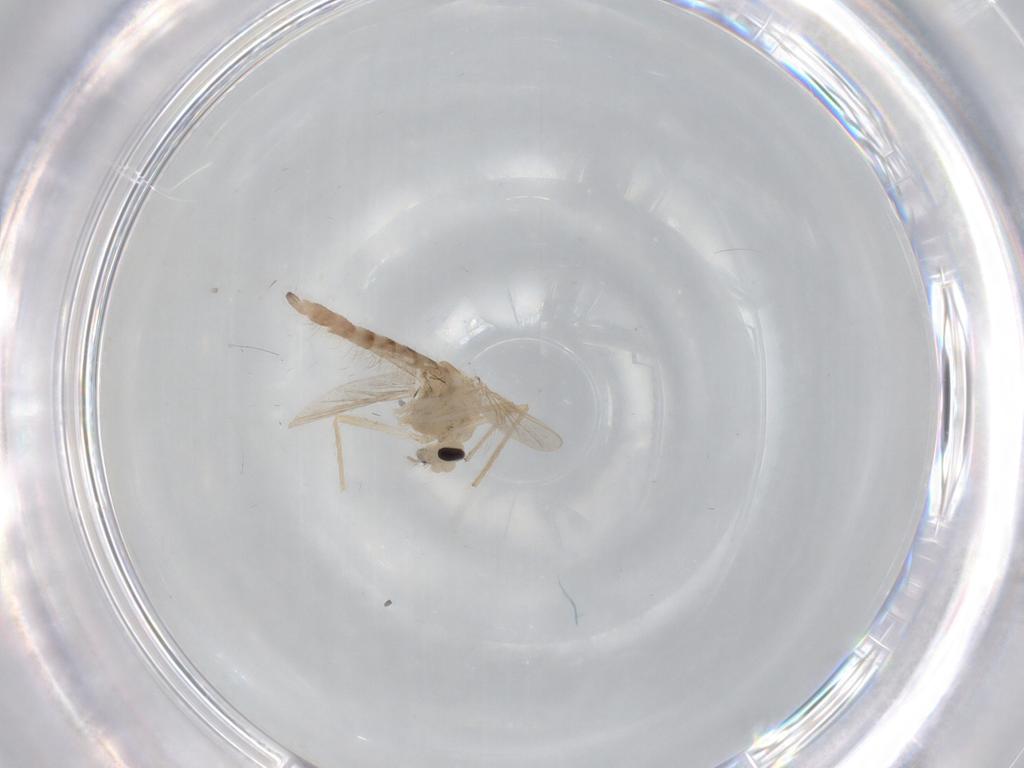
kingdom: Animalia
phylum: Arthropoda
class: Insecta
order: Diptera
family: Chironomidae
